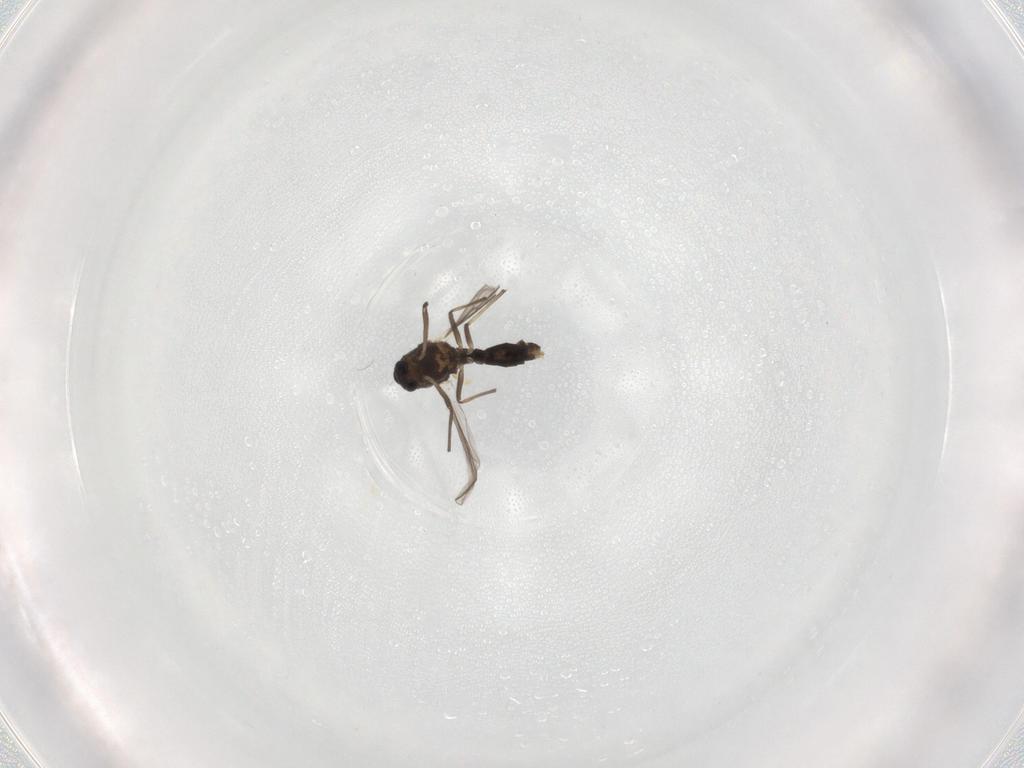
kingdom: Animalia
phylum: Arthropoda
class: Insecta
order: Diptera
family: Chironomidae
